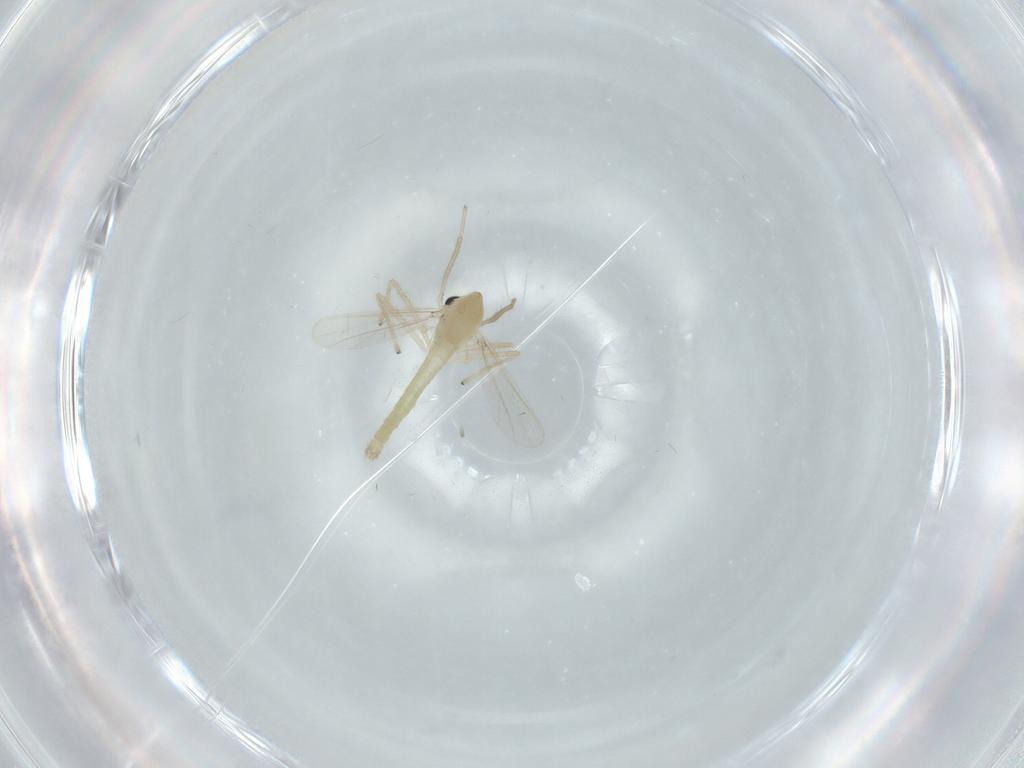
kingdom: Animalia
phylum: Arthropoda
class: Insecta
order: Diptera
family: Chironomidae
